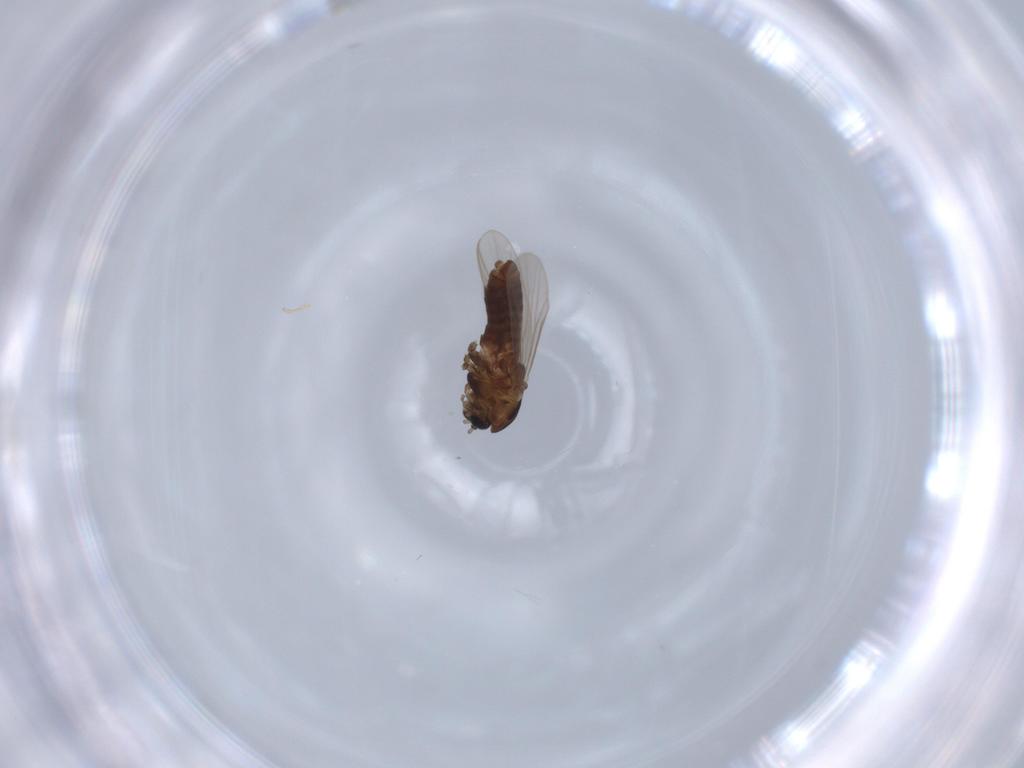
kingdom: Animalia
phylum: Arthropoda
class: Insecta
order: Diptera
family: Chironomidae
